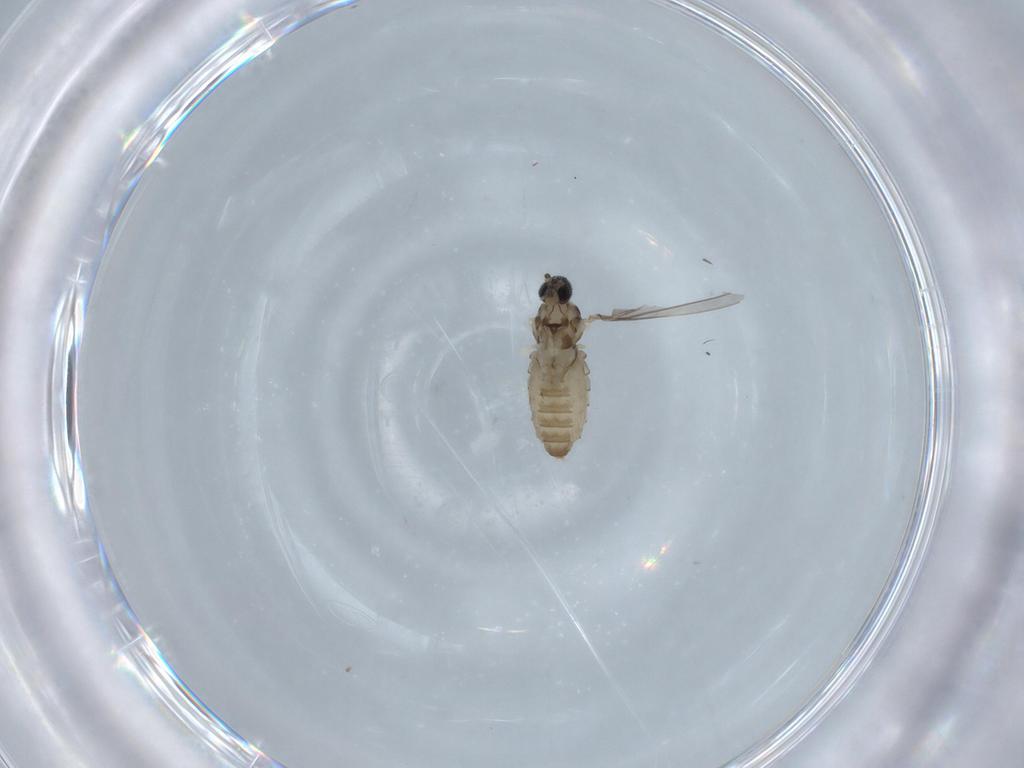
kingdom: Animalia
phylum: Arthropoda
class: Insecta
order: Diptera
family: Cecidomyiidae
